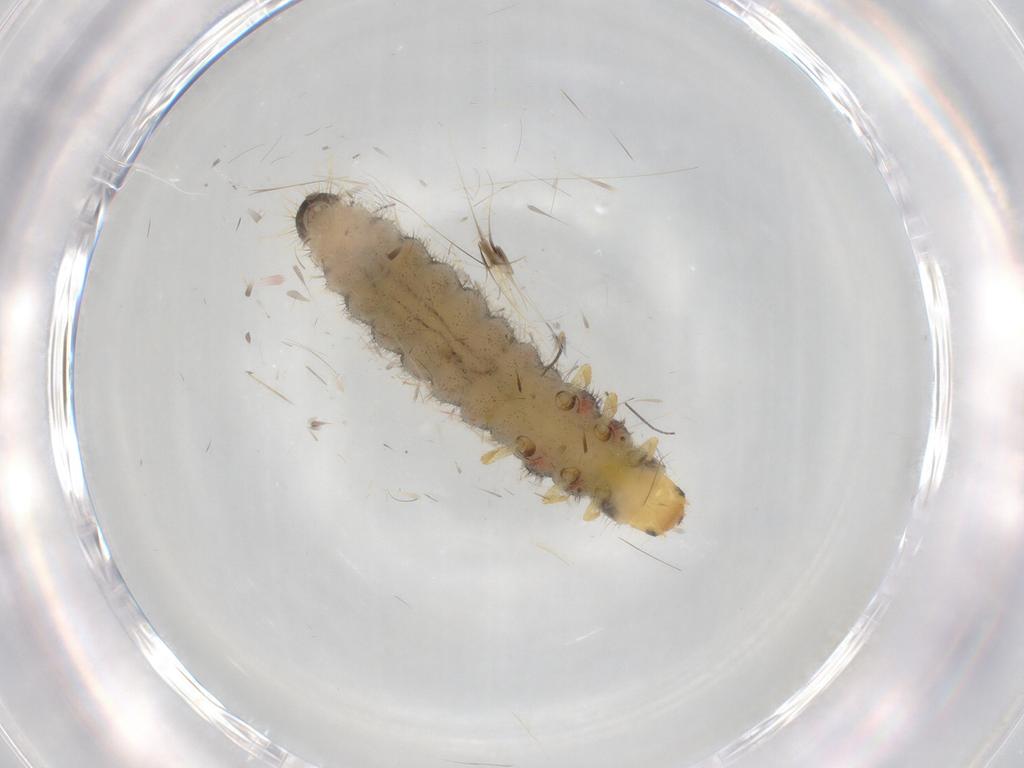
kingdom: Animalia
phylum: Arthropoda
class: Insecta
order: Coleoptera
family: Cleridae
